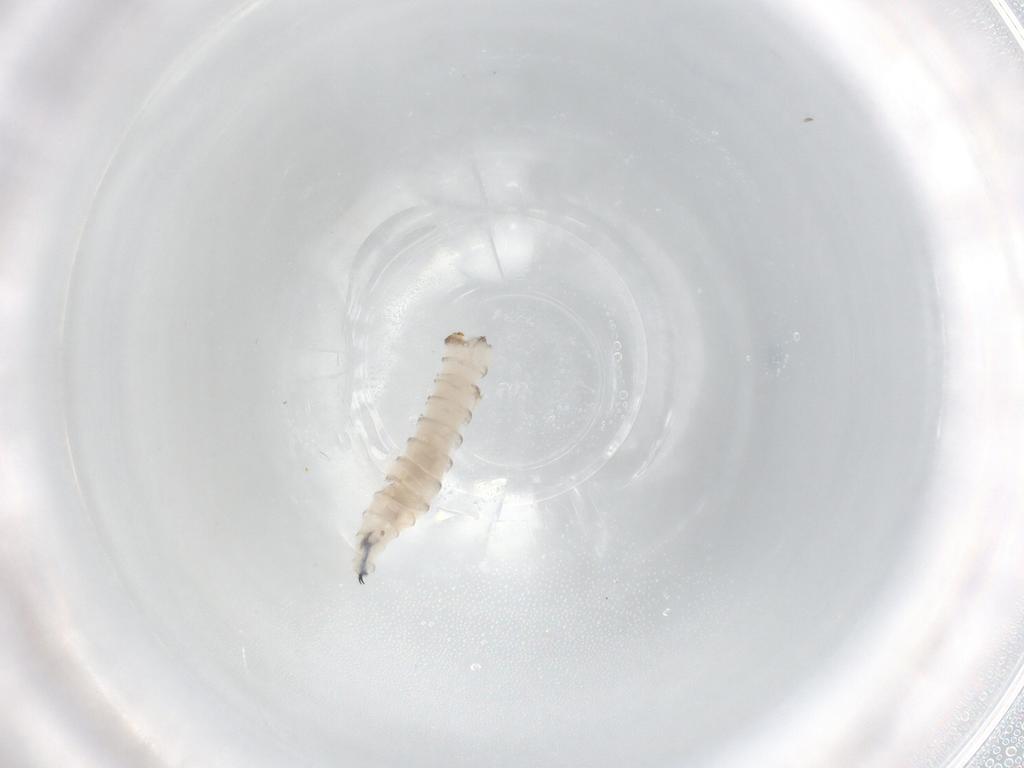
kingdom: Animalia
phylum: Arthropoda
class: Insecta
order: Diptera
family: Sarcophagidae
